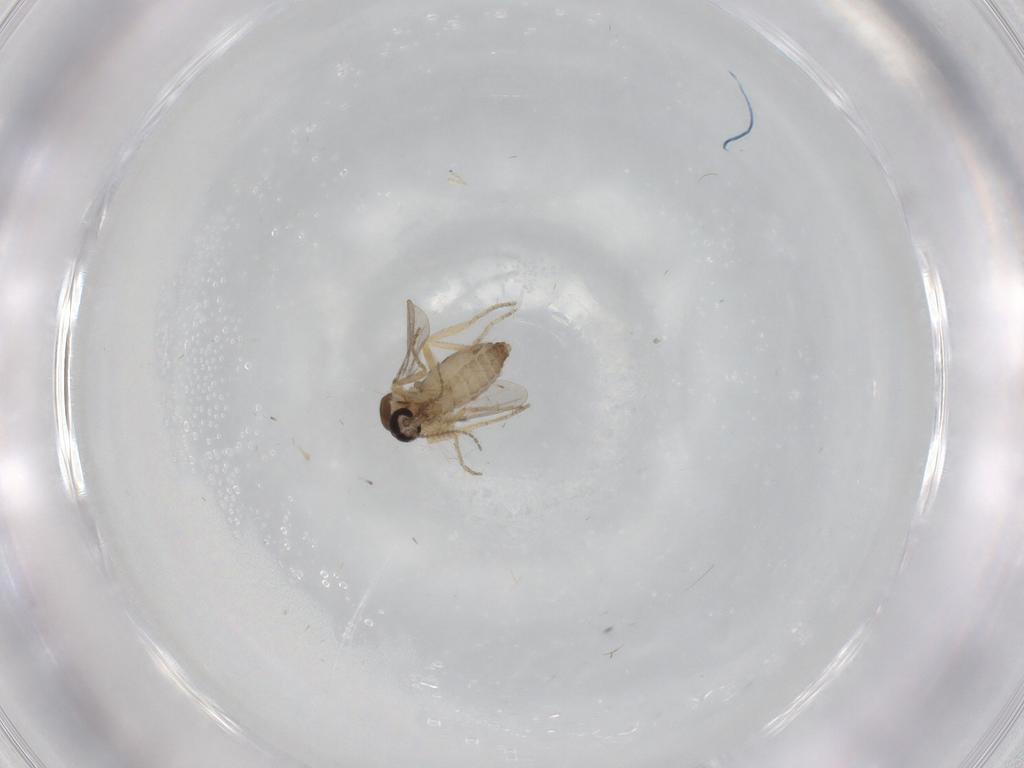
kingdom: Animalia
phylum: Arthropoda
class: Insecta
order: Diptera
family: Ceratopogonidae
